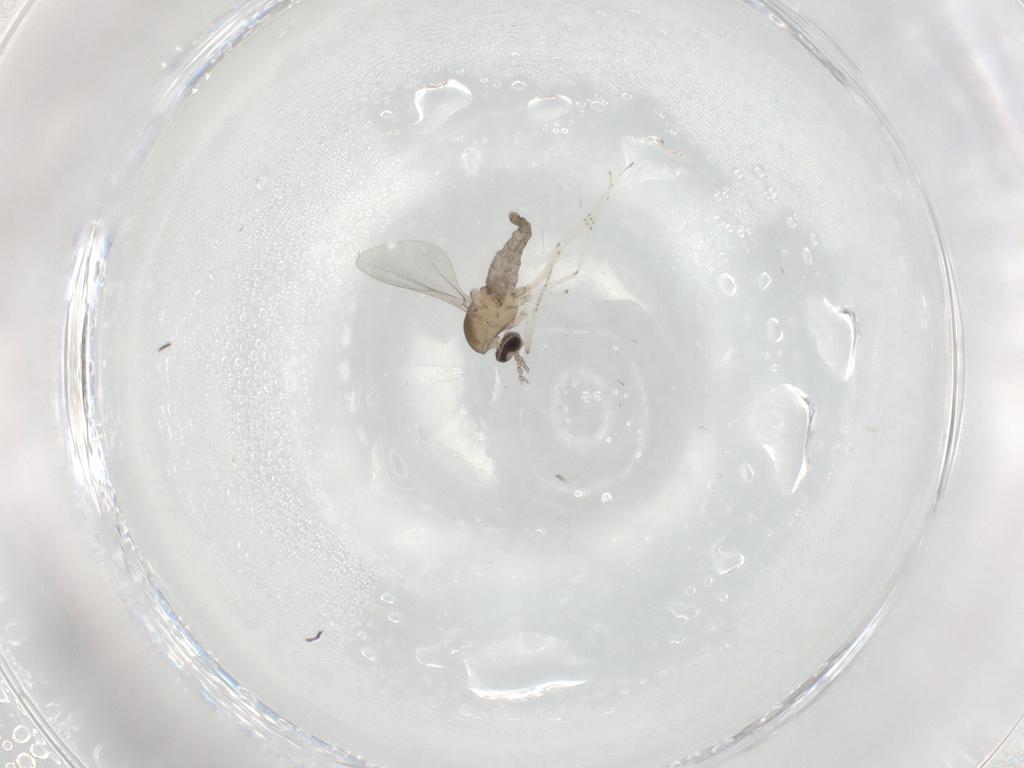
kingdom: Animalia
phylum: Arthropoda
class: Insecta
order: Diptera
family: Cecidomyiidae
